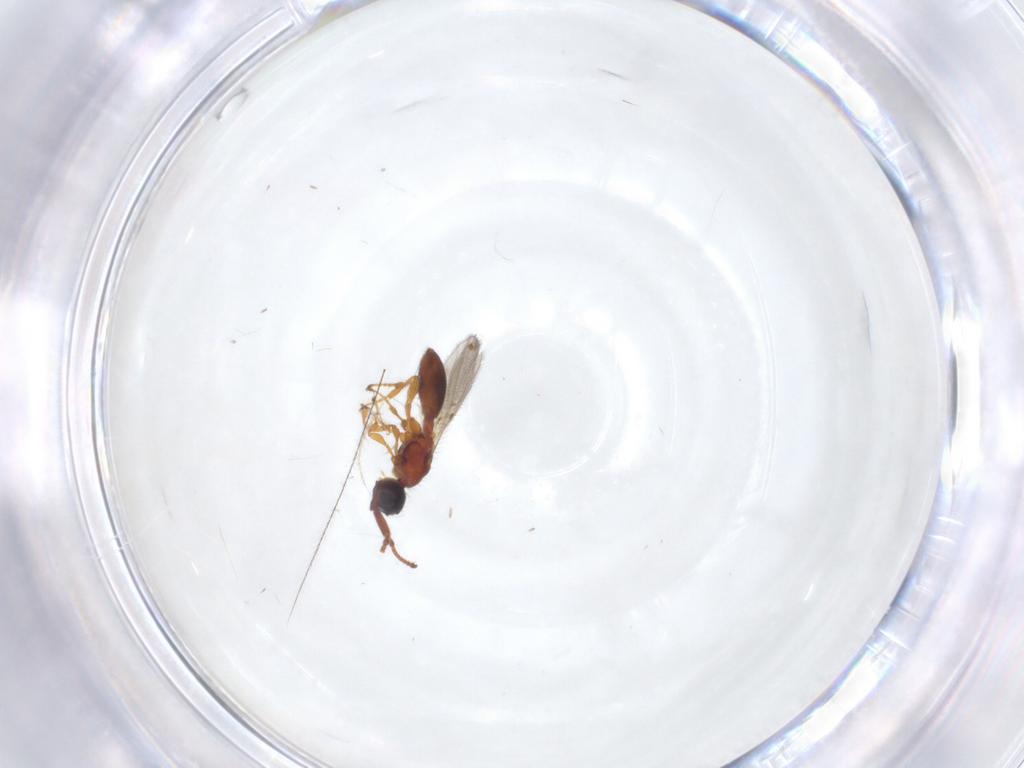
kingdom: Animalia
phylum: Arthropoda
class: Insecta
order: Hymenoptera
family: Diapriidae
